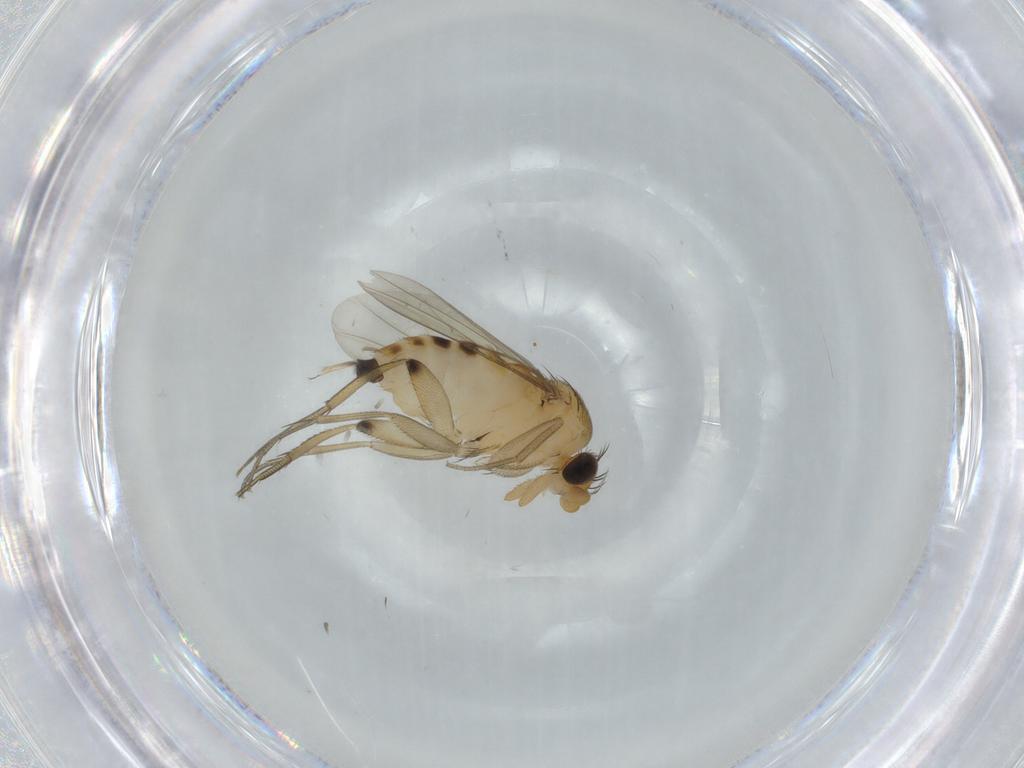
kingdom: Animalia
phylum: Arthropoda
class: Insecta
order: Diptera
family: Phoridae
